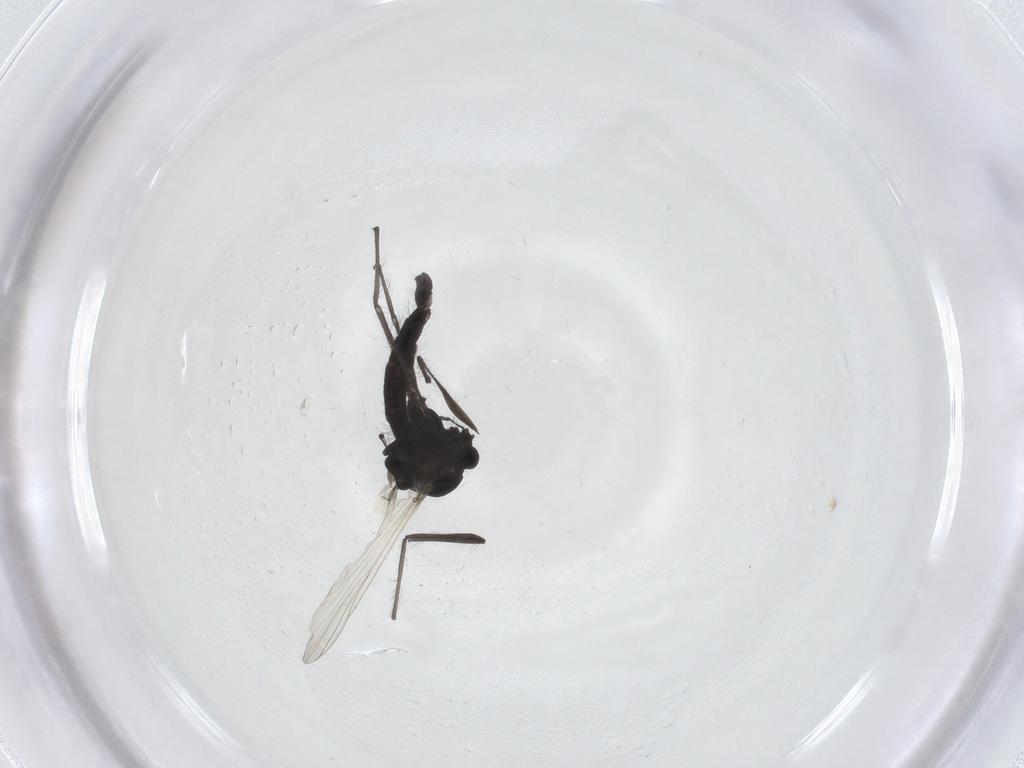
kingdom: Animalia
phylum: Arthropoda
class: Insecta
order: Diptera
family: Chironomidae
